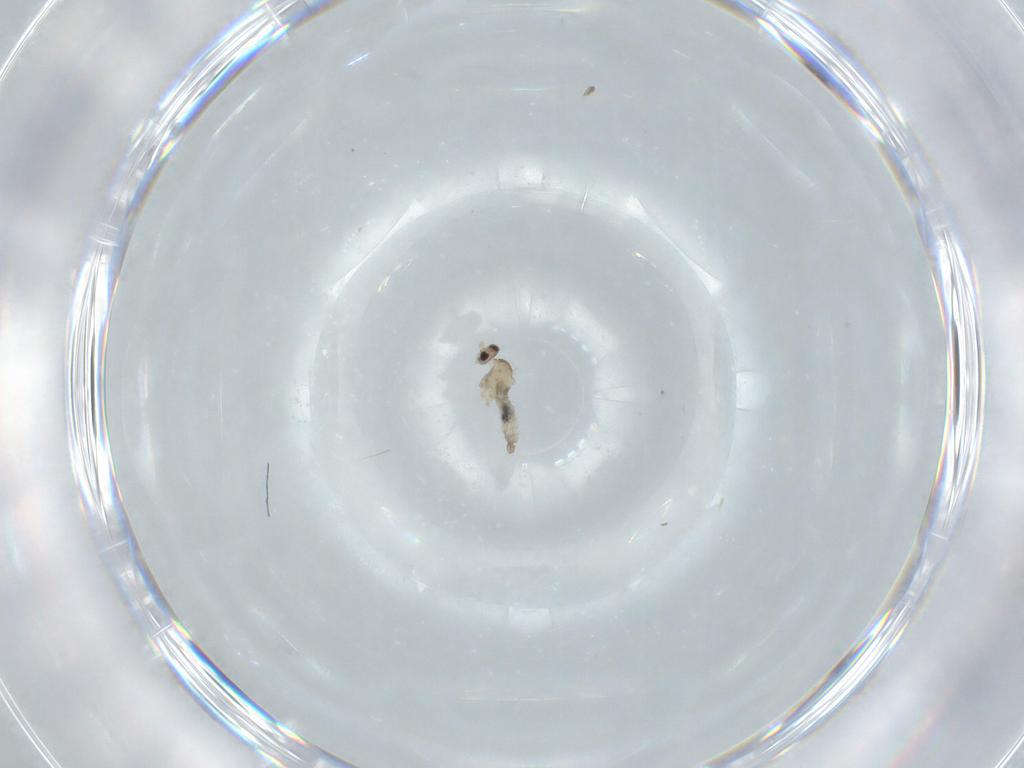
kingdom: Animalia
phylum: Arthropoda
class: Insecta
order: Diptera
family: Cecidomyiidae
